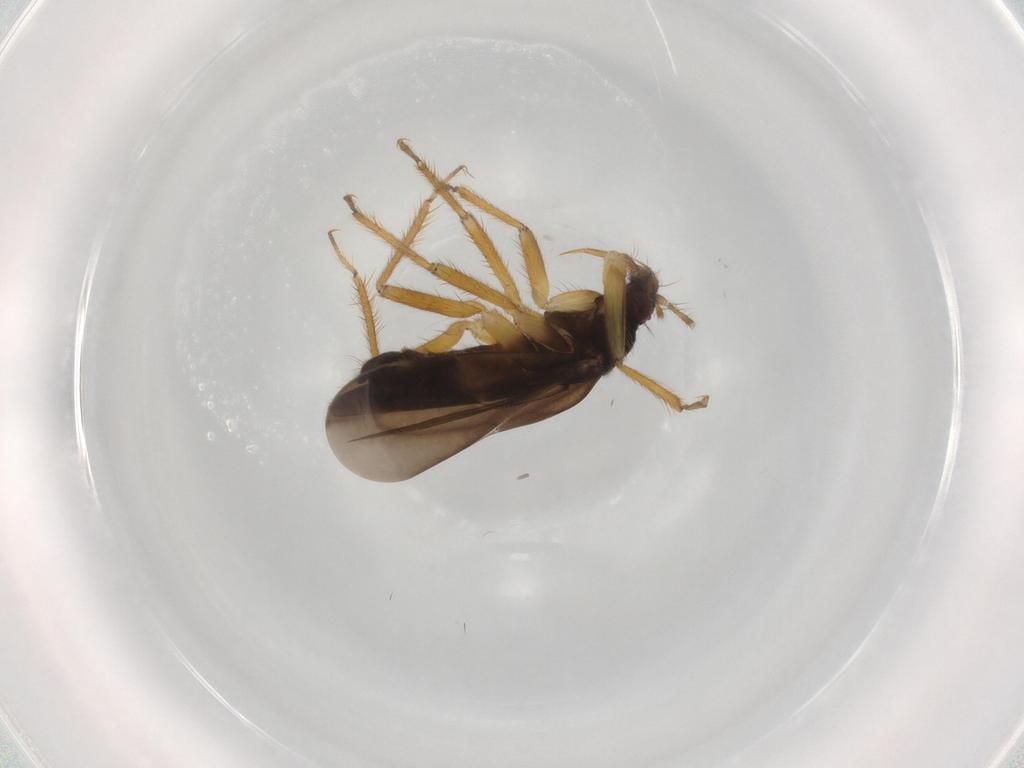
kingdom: Animalia
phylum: Arthropoda
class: Insecta
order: Hemiptera
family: Ceratocombidae
